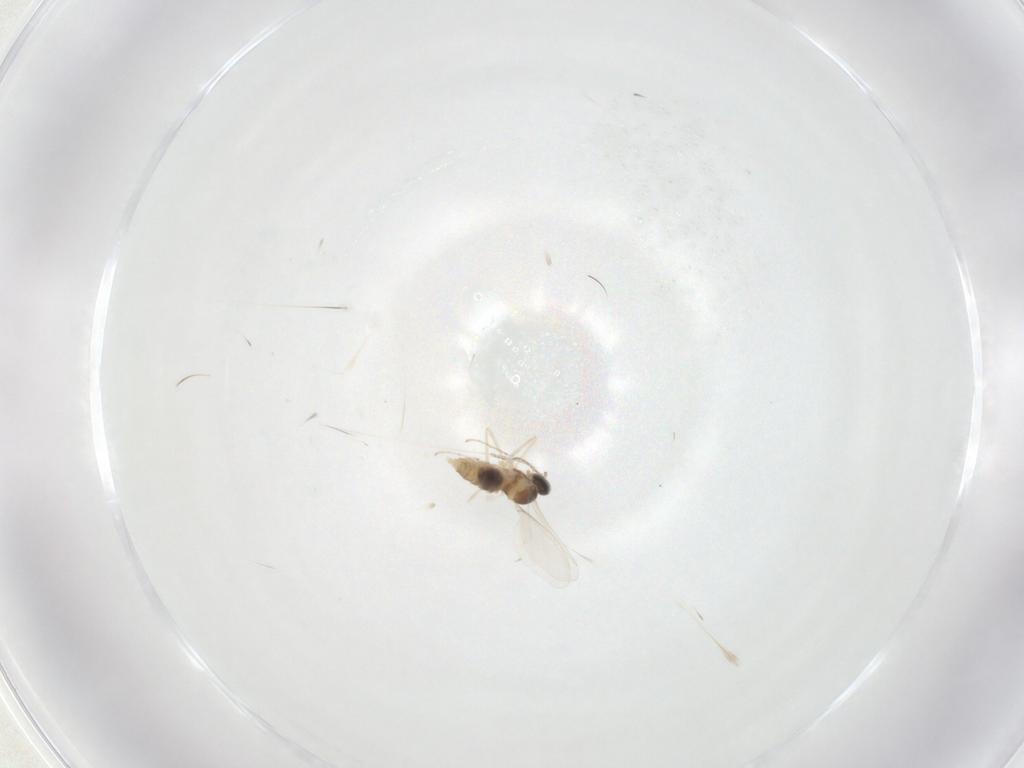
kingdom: Animalia
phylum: Arthropoda
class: Insecta
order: Diptera
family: Cecidomyiidae
